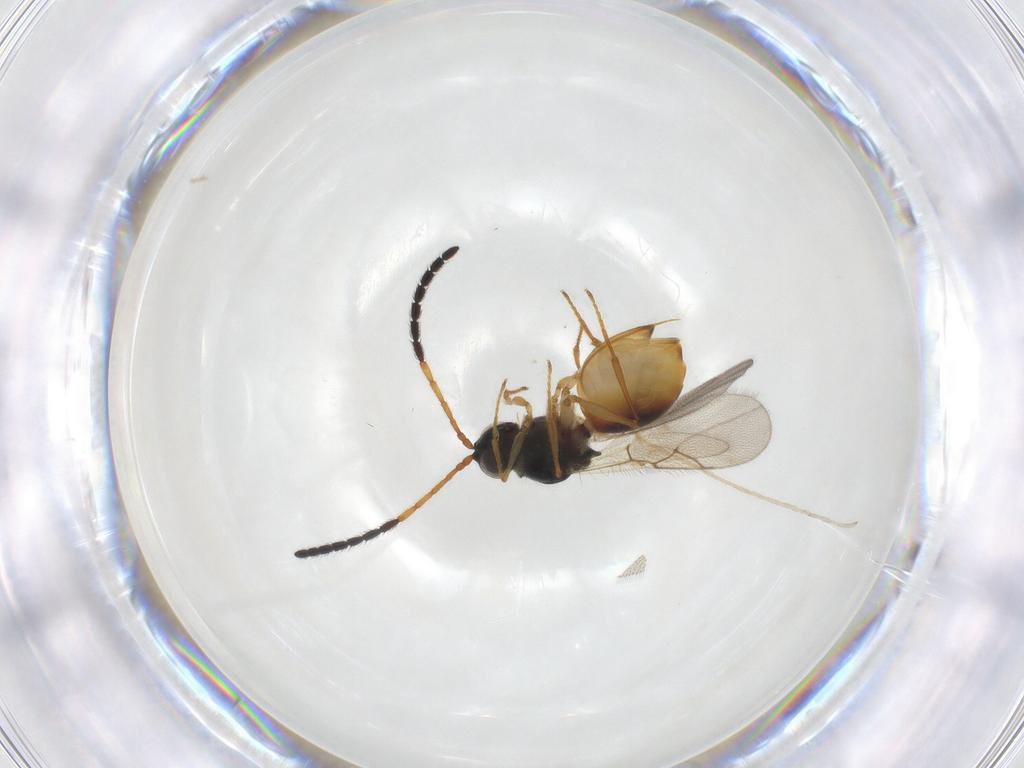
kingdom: Animalia
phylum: Arthropoda
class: Insecta
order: Hymenoptera
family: Figitidae
